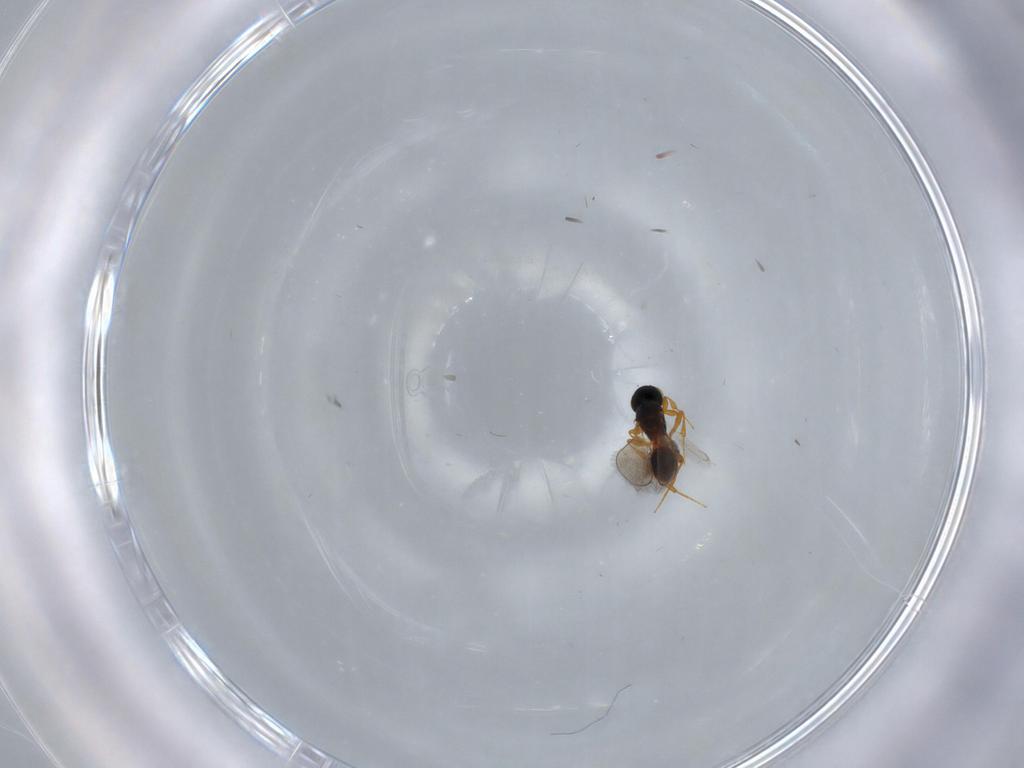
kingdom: Animalia
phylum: Arthropoda
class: Insecta
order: Hymenoptera
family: Platygastridae
